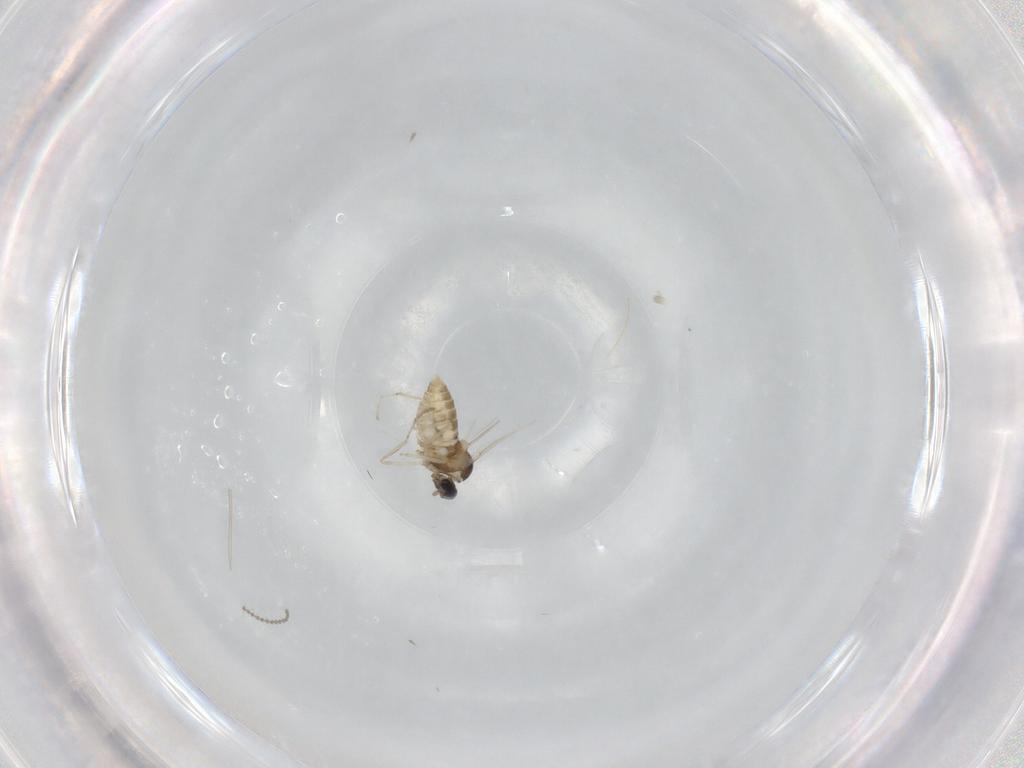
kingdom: Animalia
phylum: Arthropoda
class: Insecta
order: Diptera
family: Cecidomyiidae
